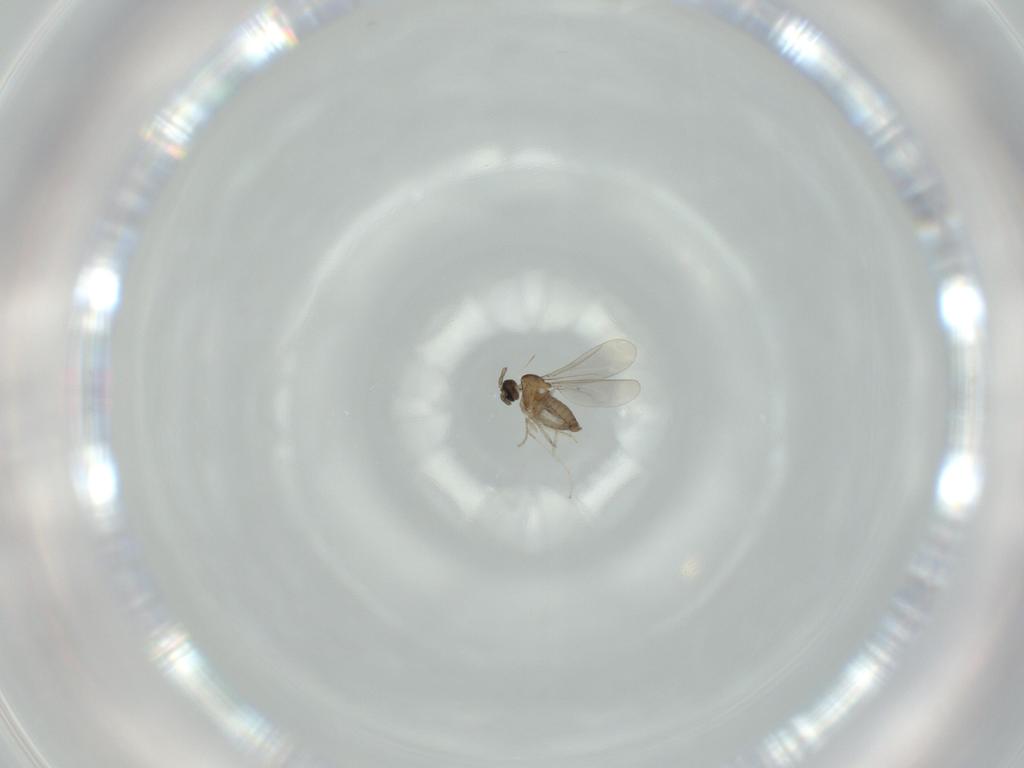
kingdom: Animalia
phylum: Arthropoda
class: Insecta
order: Diptera
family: Cecidomyiidae
